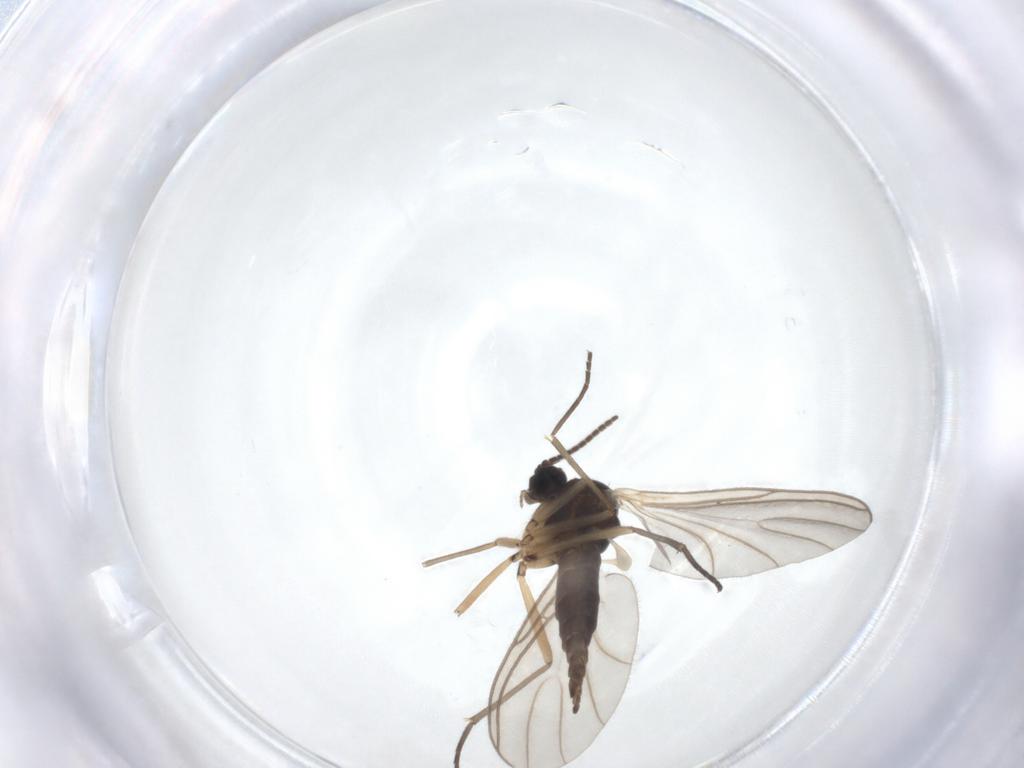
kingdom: Animalia
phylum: Arthropoda
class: Insecta
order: Diptera
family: Sciaridae
